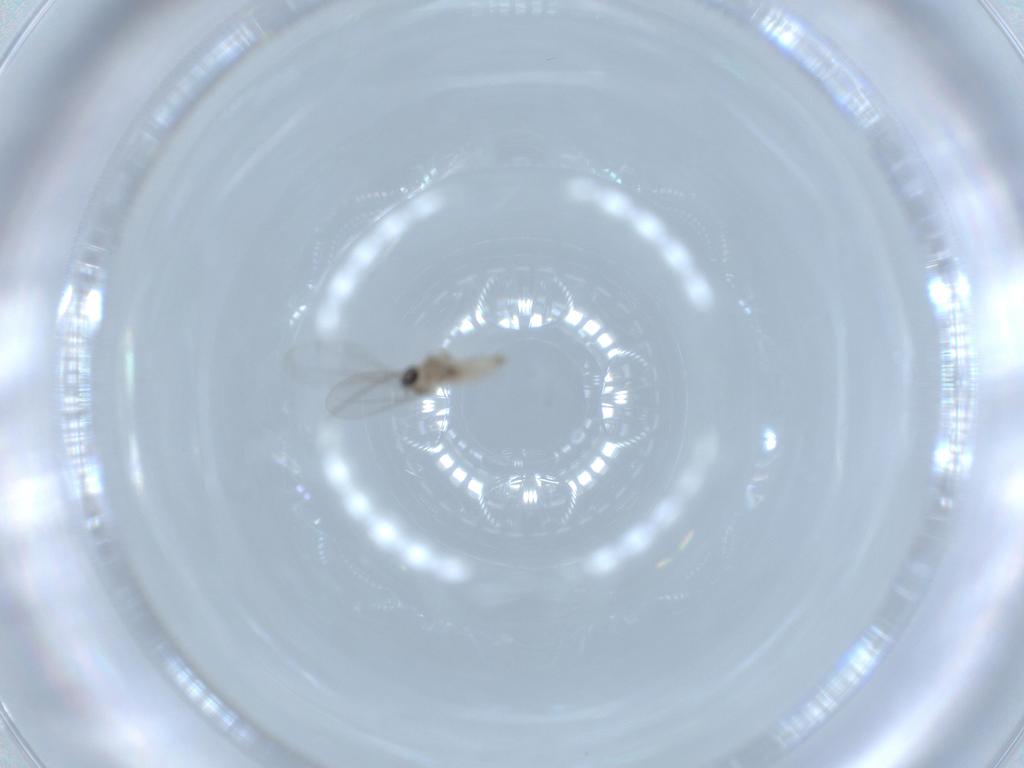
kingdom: Animalia
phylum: Arthropoda
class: Insecta
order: Diptera
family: Cecidomyiidae
